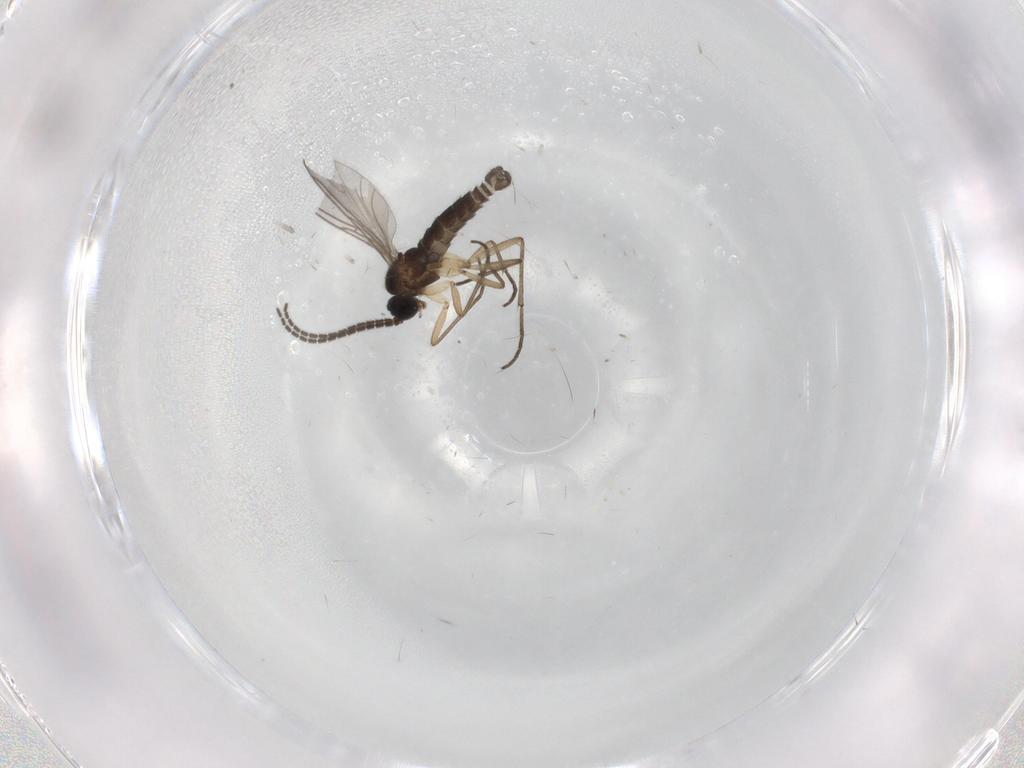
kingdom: Animalia
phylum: Arthropoda
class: Insecta
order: Diptera
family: Sciaridae
